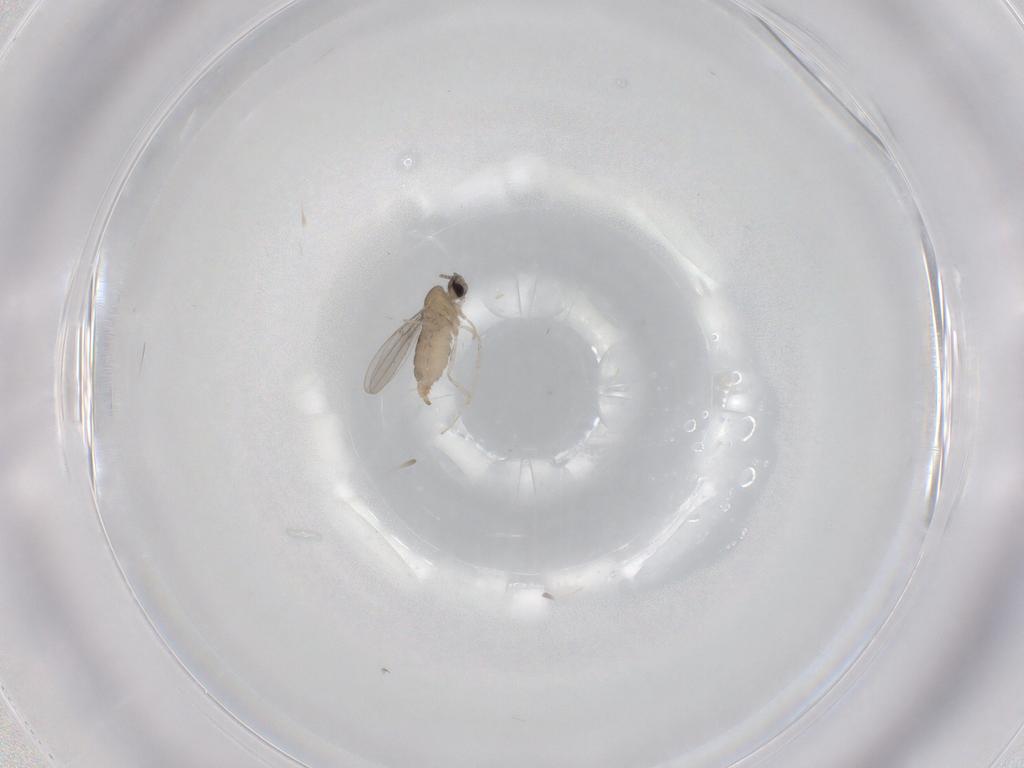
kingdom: Animalia
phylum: Arthropoda
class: Insecta
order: Diptera
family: Cecidomyiidae
